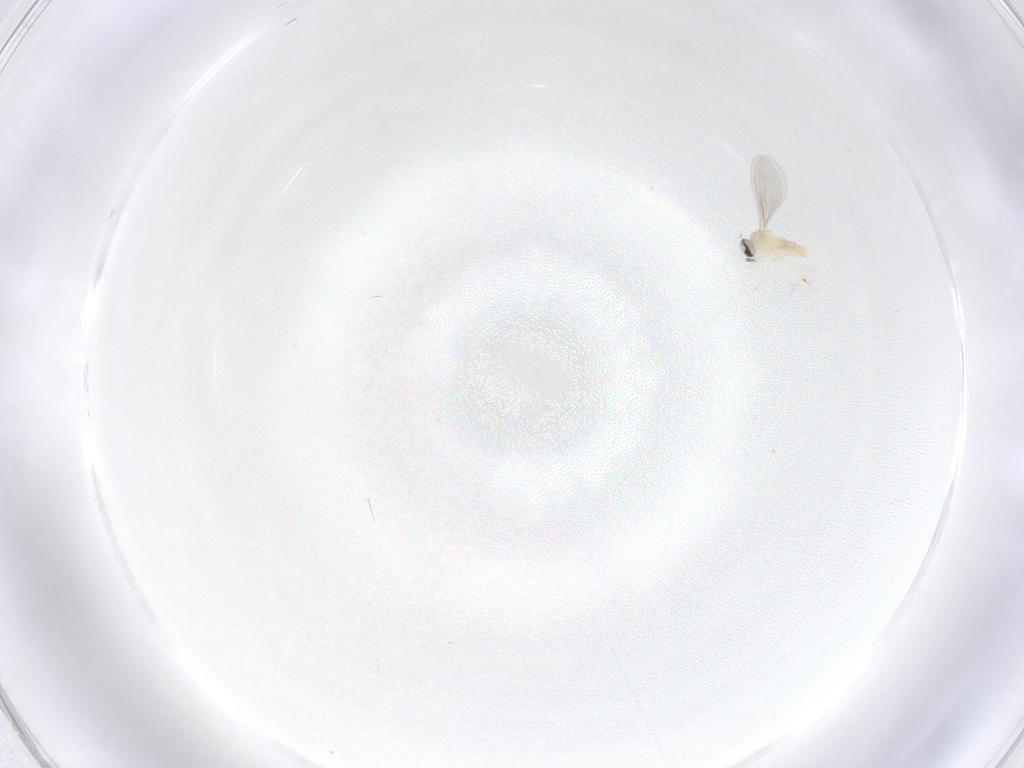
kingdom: Animalia
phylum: Arthropoda
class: Insecta
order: Diptera
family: Cecidomyiidae
